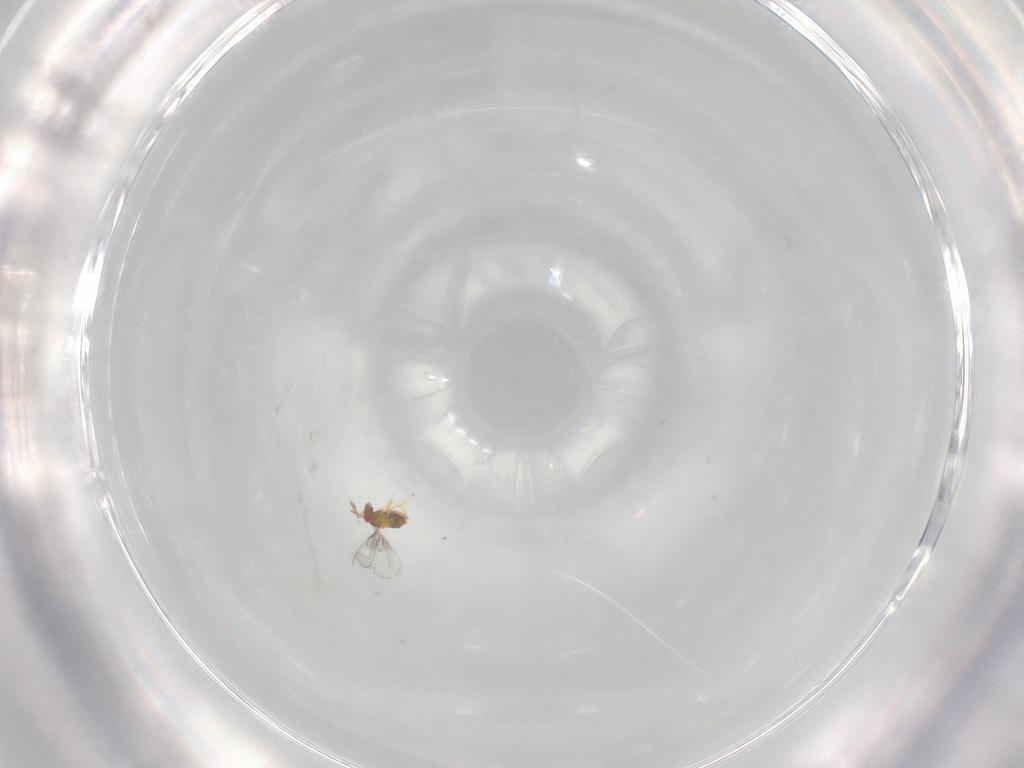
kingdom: Animalia
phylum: Arthropoda
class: Insecta
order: Hymenoptera
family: Trichogrammatidae
